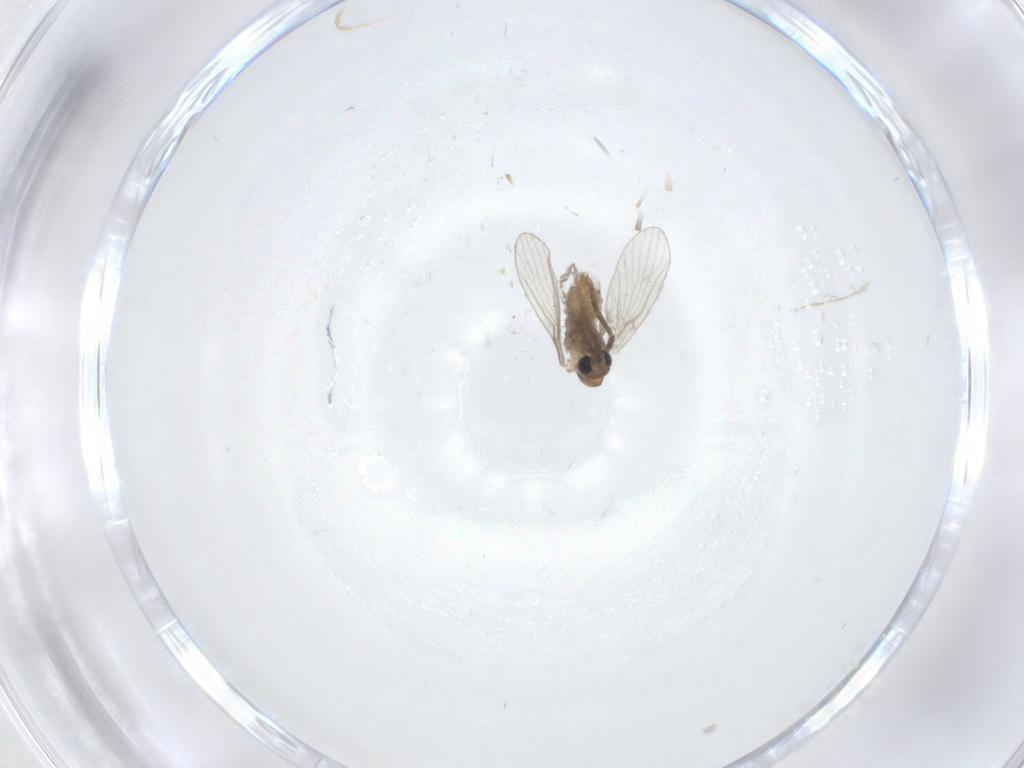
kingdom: Animalia
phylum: Arthropoda
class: Insecta
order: Diptera
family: Psychodidae
